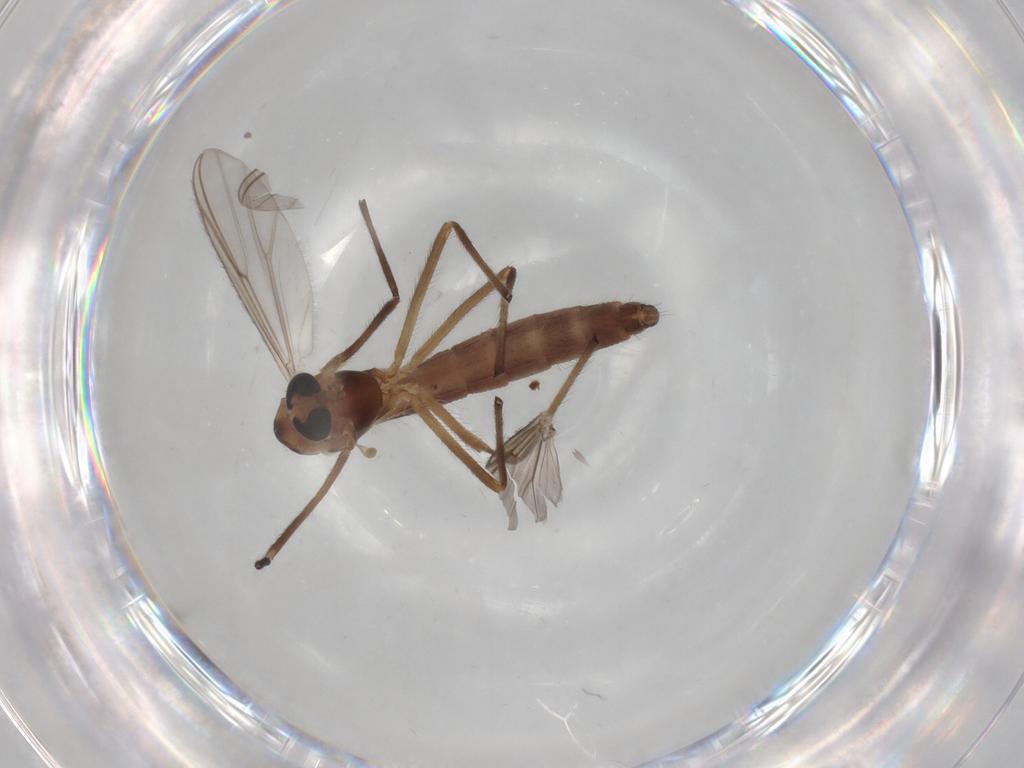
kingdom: Animalia
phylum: Arthropoda
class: Insecta
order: Diptera
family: Chironomidae
